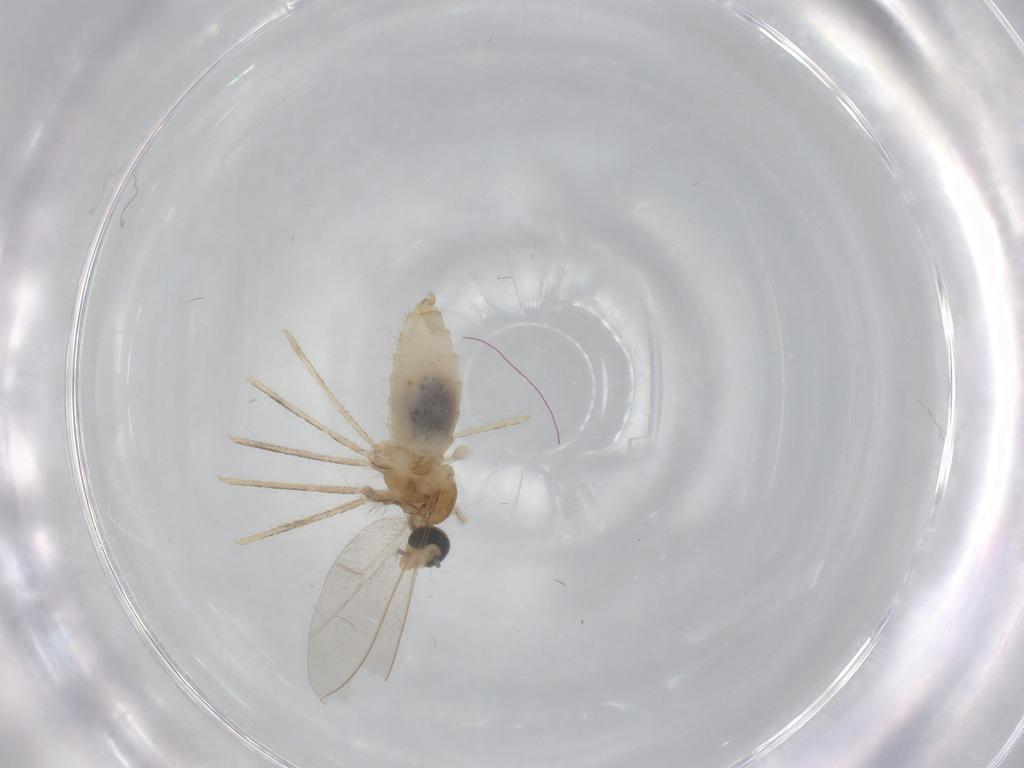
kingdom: Animalia
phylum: Arthropoda
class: Insecta
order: Diptera
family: Cecidomyiidae
